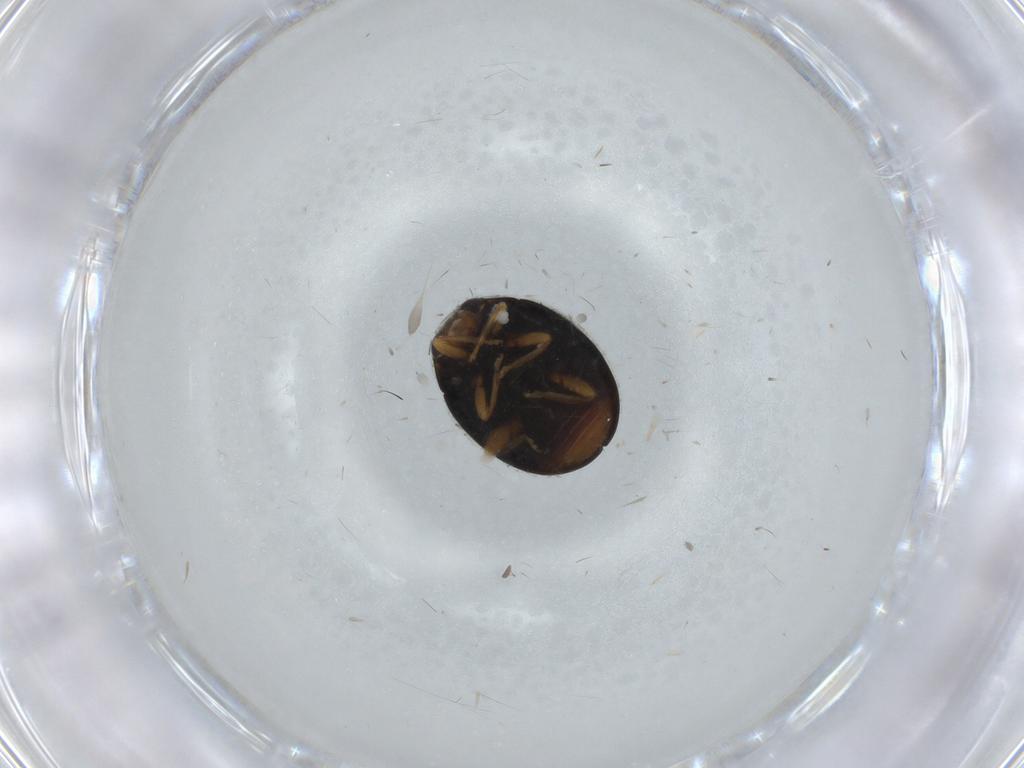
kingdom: Animalia
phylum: Arthropoda
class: Insecta
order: Coleoptera
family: Coccinellidae
